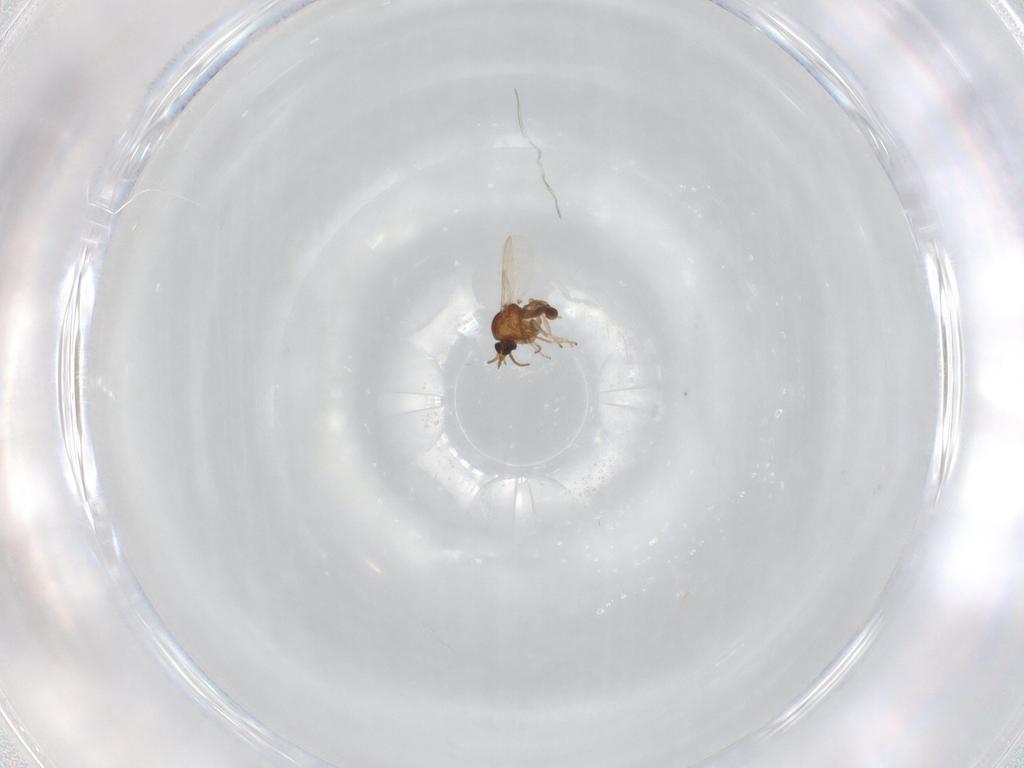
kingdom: Animalia
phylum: Arthropoda
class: Insecta
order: Diptera
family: Ceratopogonidae
